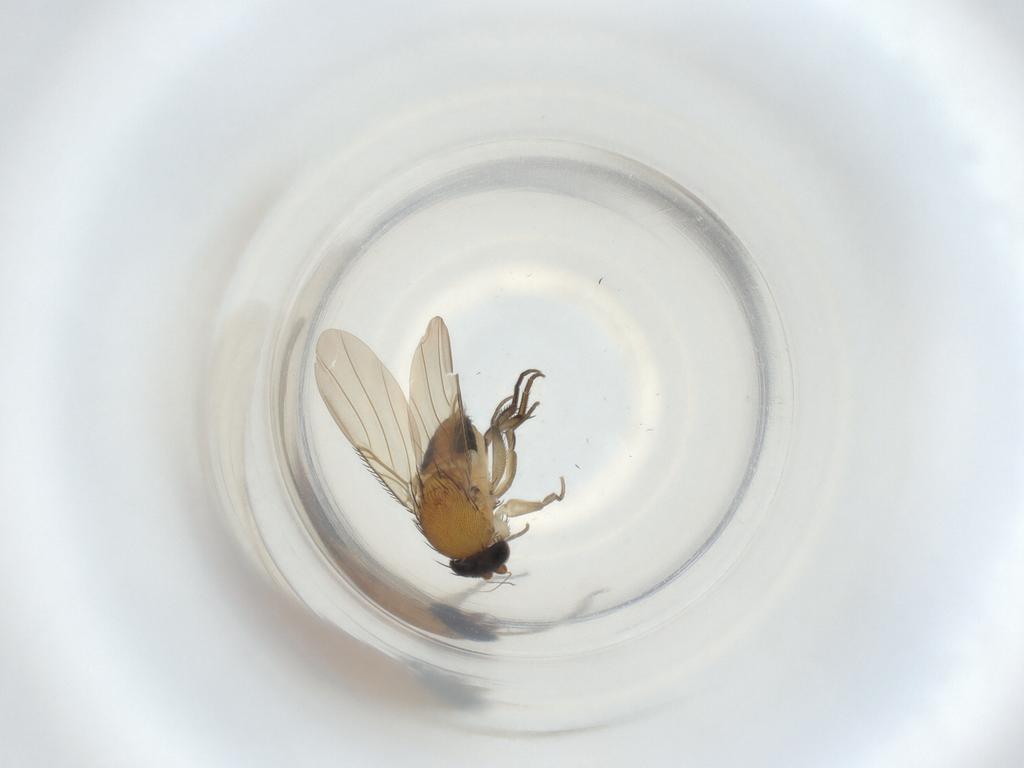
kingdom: Animalia
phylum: Arthropoda
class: Insecta
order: Diptera
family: Phoridae
